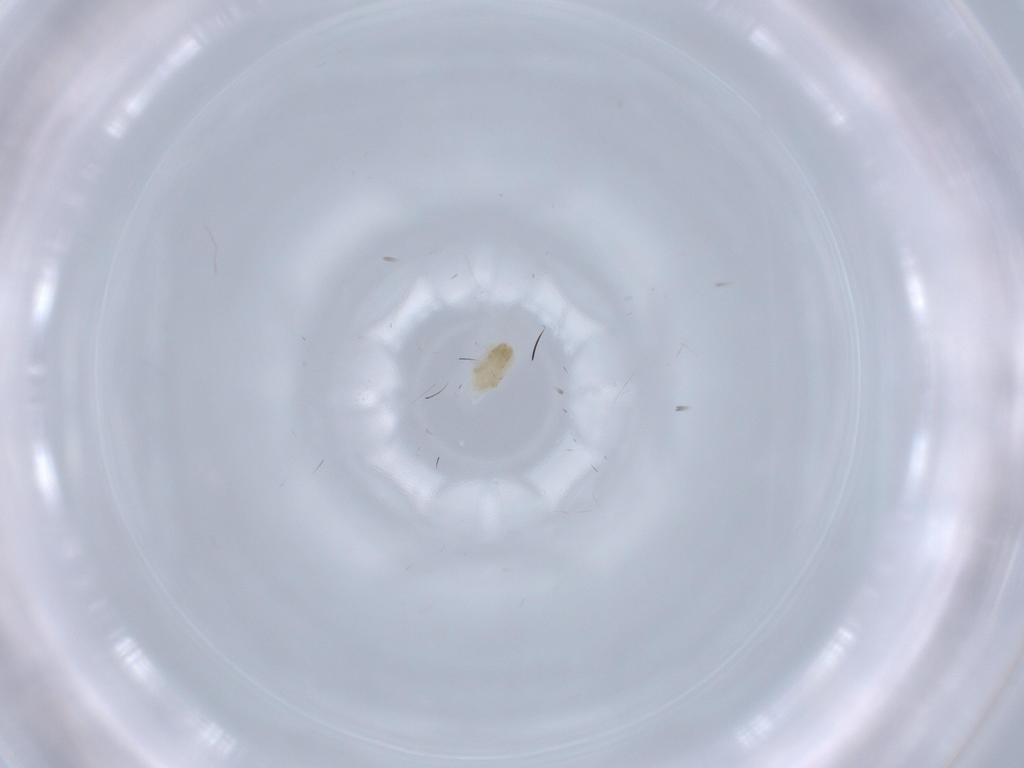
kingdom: Animalia
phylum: Arthropoda
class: Arachnida
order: Trombidiformes
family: Eupodidae
